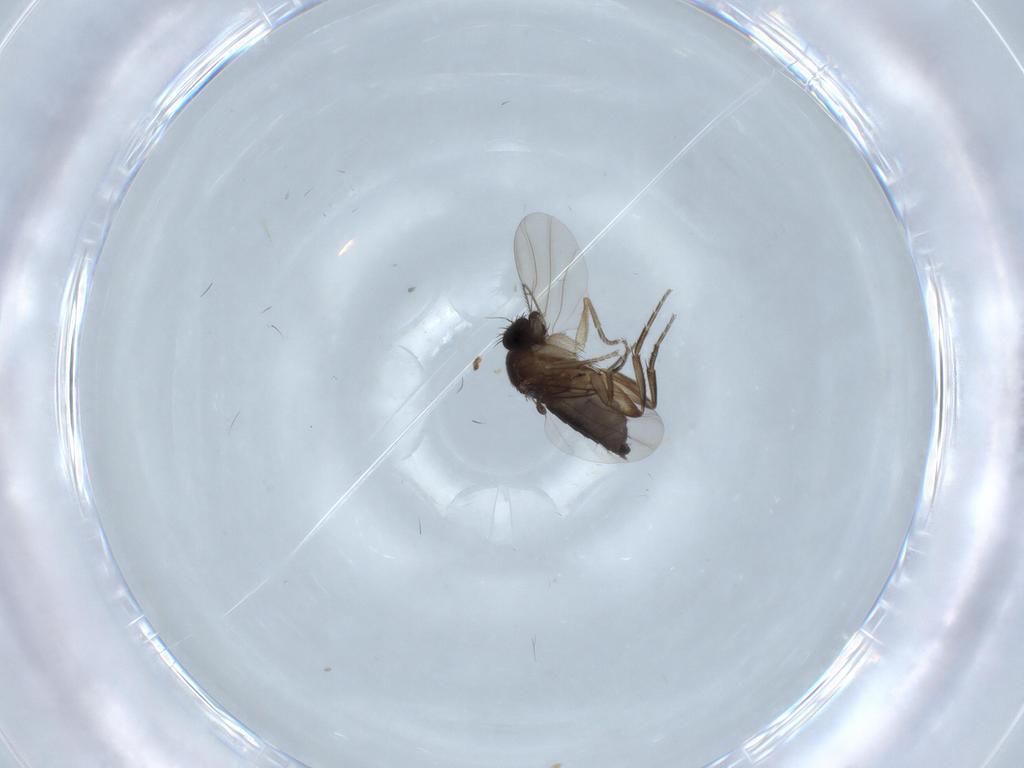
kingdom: Animalia
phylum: Arthropoda
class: Insecta
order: Diptera
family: Phoridae
